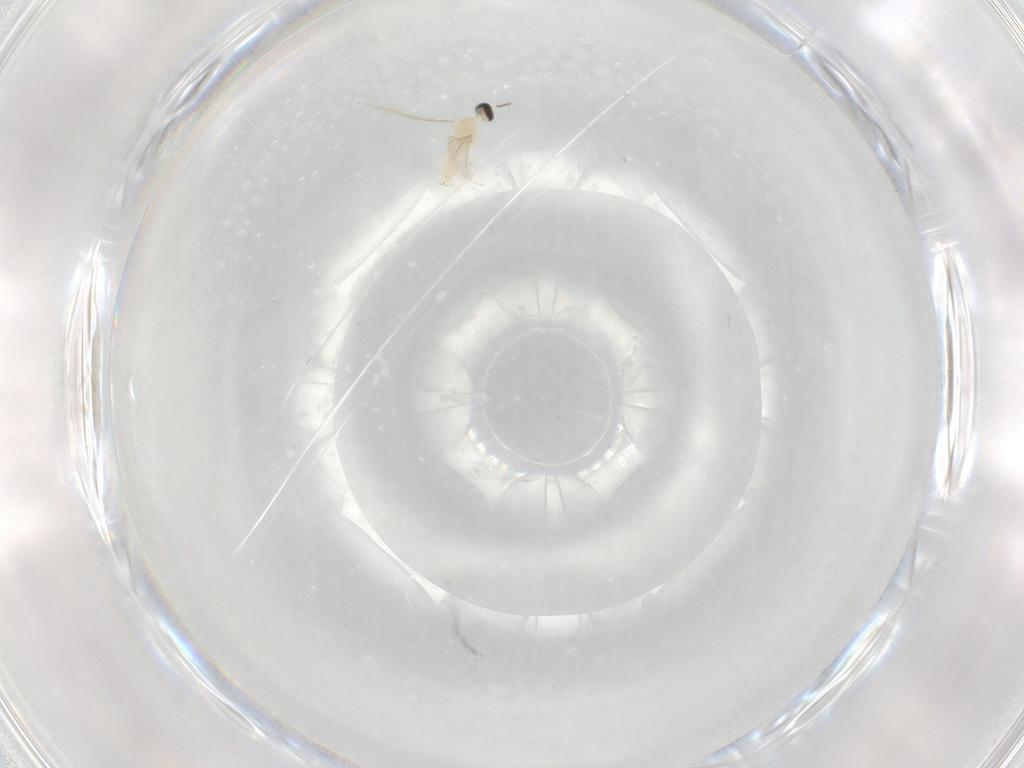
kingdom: Animalia
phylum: Arthropoda
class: Insecta
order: Diptera
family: Cecidomyiidae
